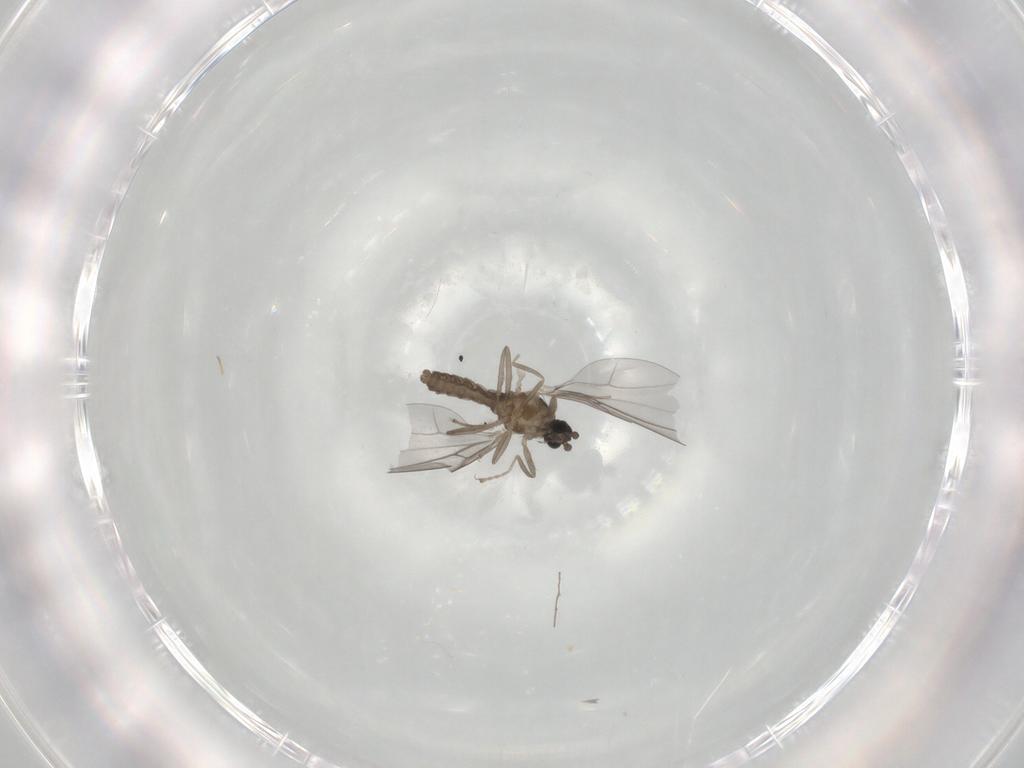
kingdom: Animalia
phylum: Arthropoda
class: Insecta
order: Diptera
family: Cecidomyiidae
